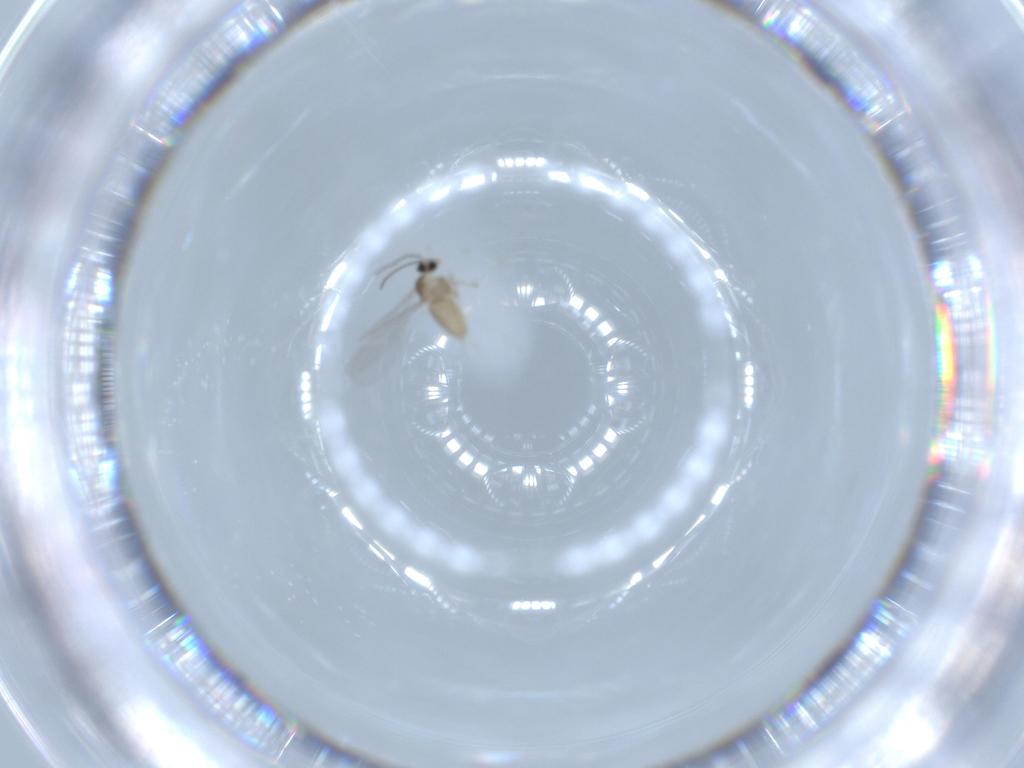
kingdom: Animalia
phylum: Arthropoda
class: Insecta
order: Diptera
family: Cecidomyiidae
